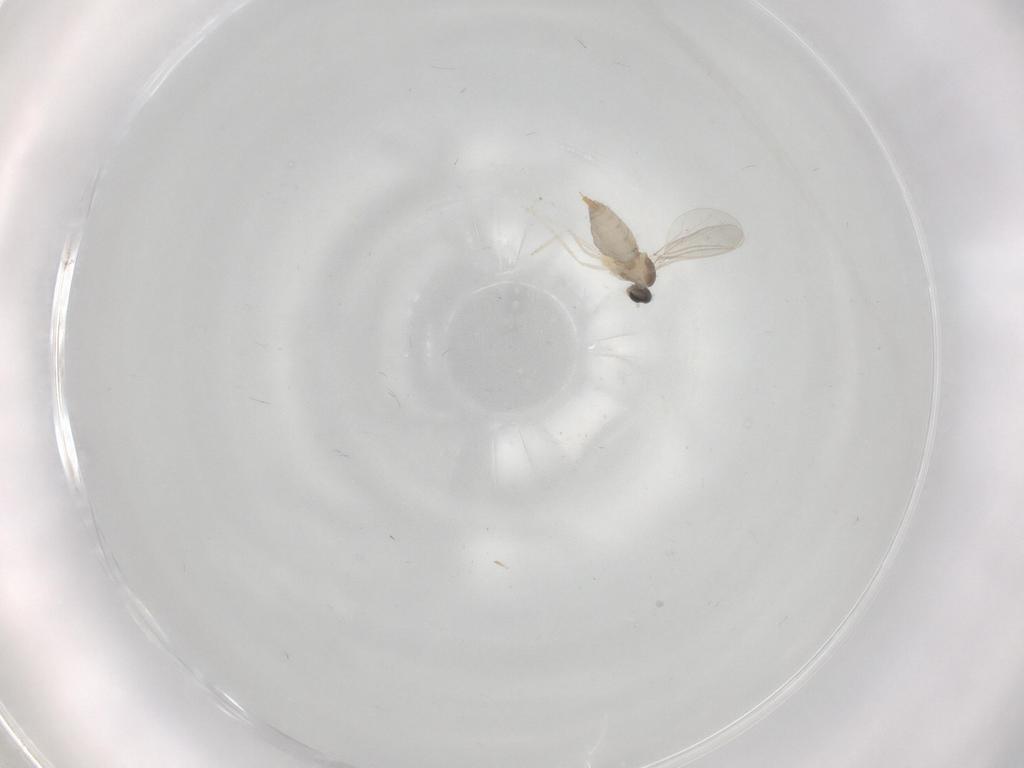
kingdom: Animalia
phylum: Arthropoda
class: Insecta
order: Diptera
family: Cecidomyiidae
